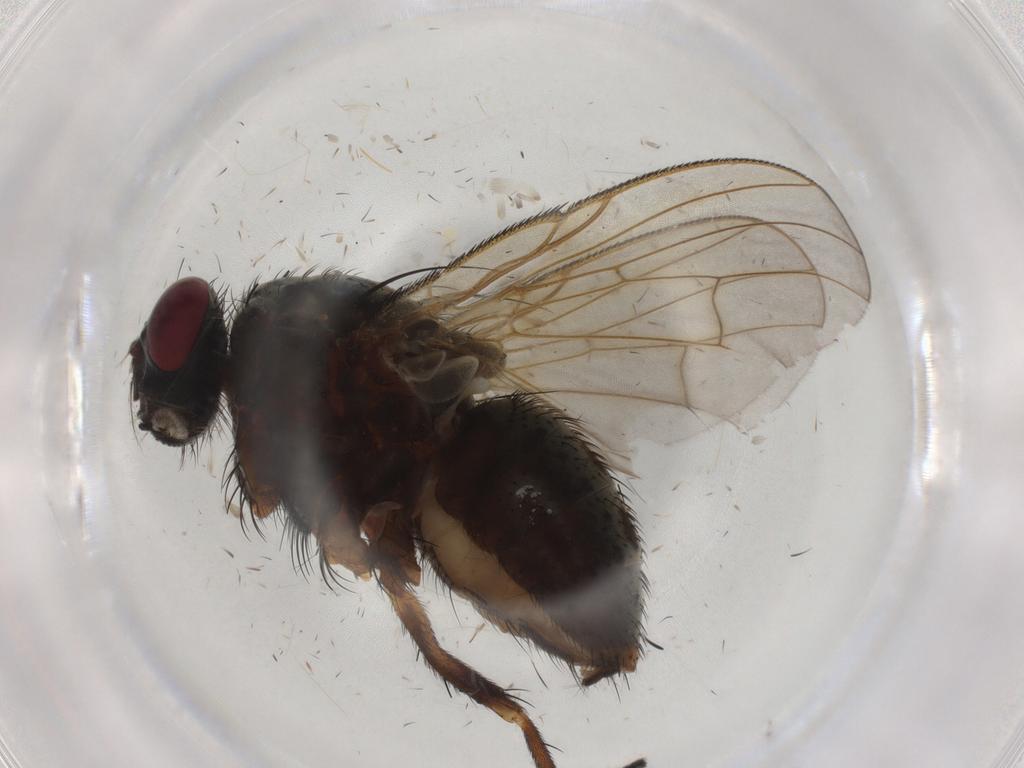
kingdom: Animalia
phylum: Arthropoda
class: Insecta
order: Diptera
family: Muscidae
